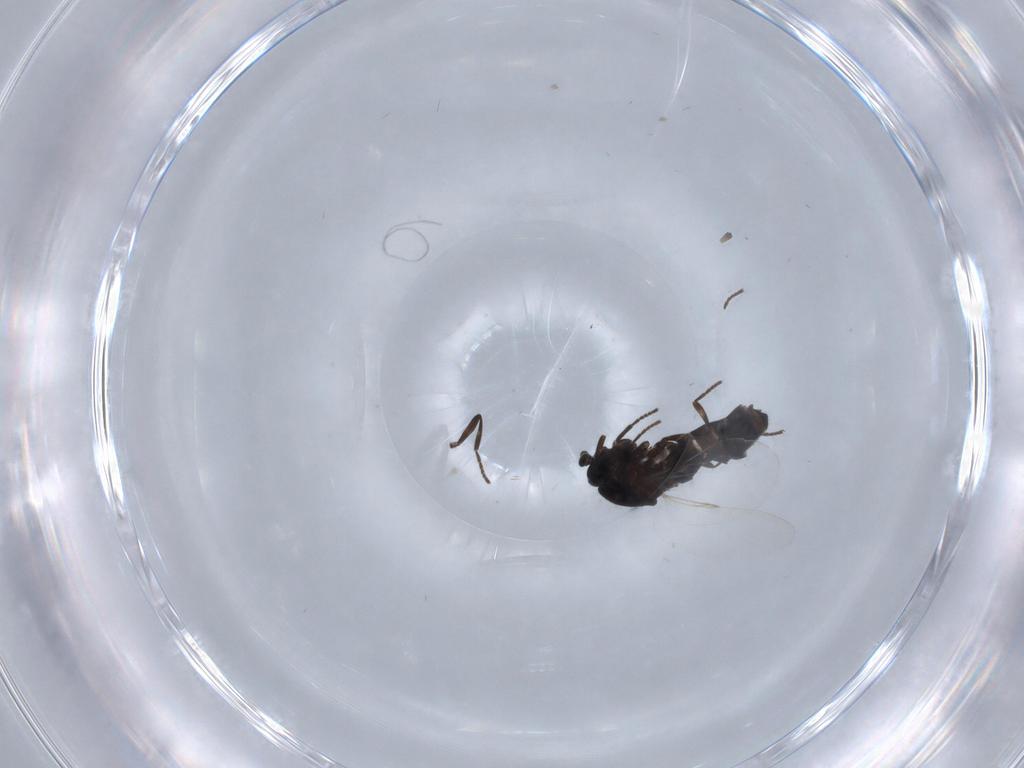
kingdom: Animalia
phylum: Arthropoda
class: Insecta
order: Diptera
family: Scatopsidae
